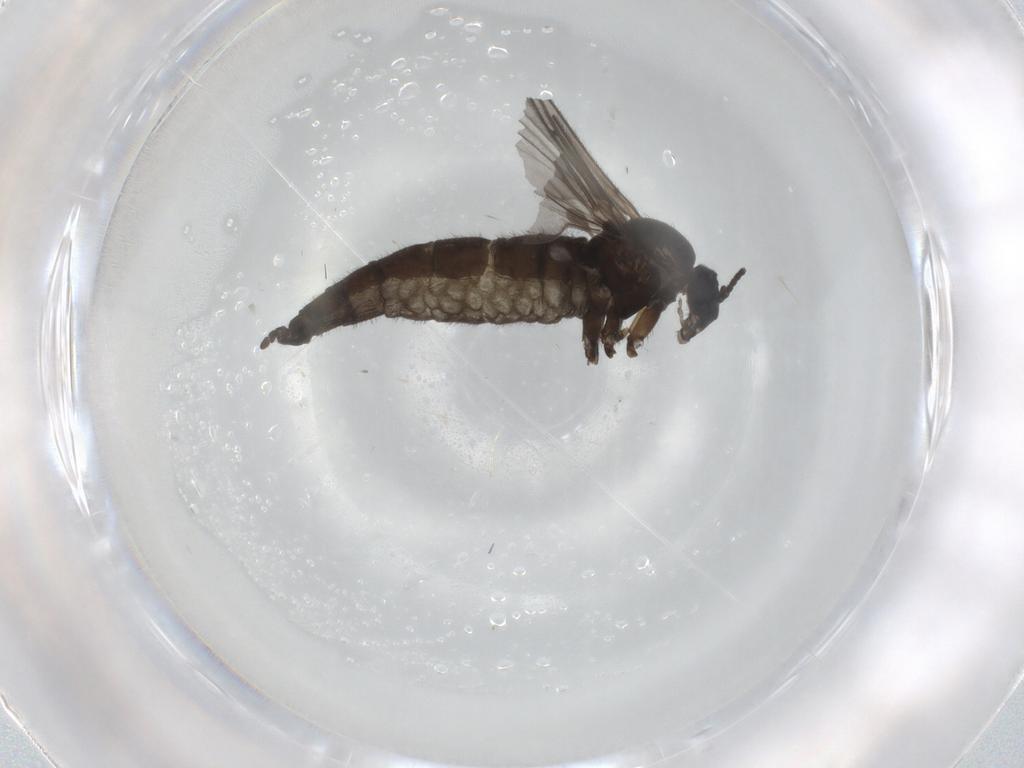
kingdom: Animalia
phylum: Arthropoda
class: Insecta
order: Diptera
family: Sciaridae
